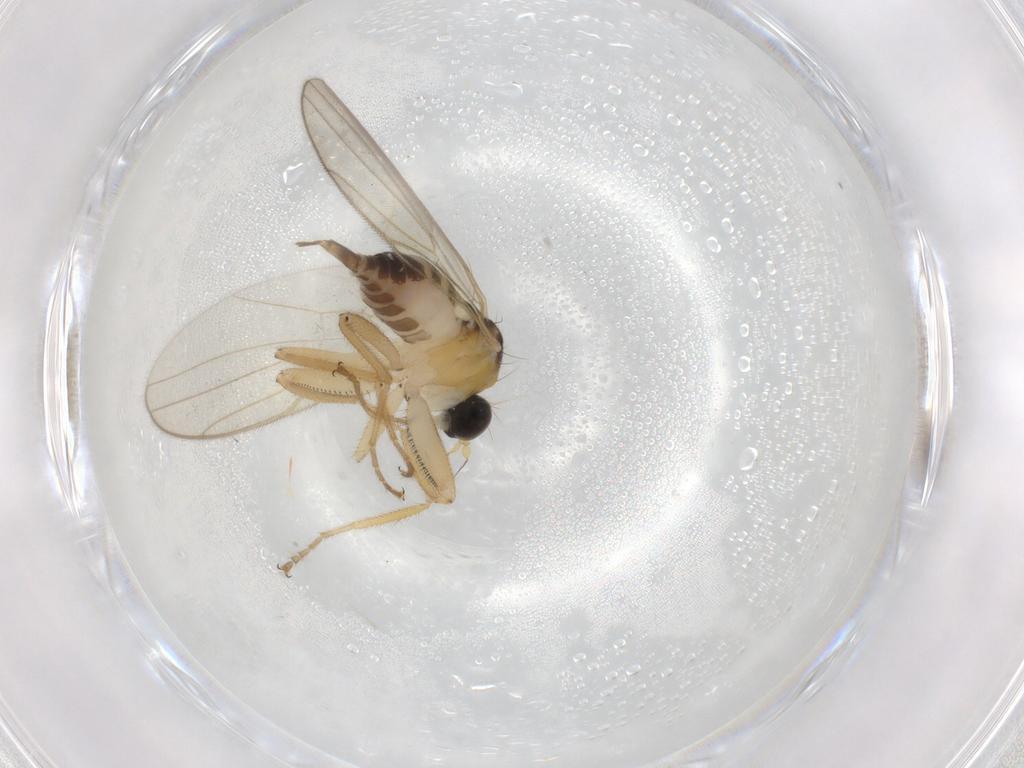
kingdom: Animalia
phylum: Arthropoda
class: Insecta
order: Diptera
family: Hybotidae
